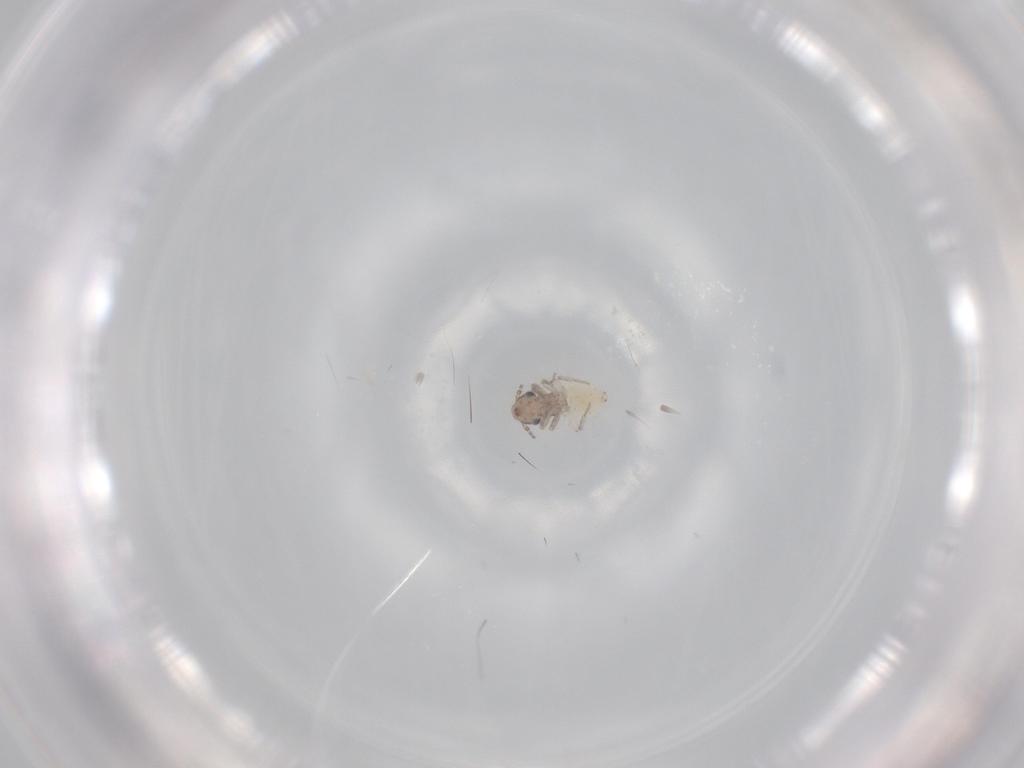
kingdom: Animalia
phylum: Arthropoda
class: Insecta
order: Psocodea
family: Lepidopsocidae
